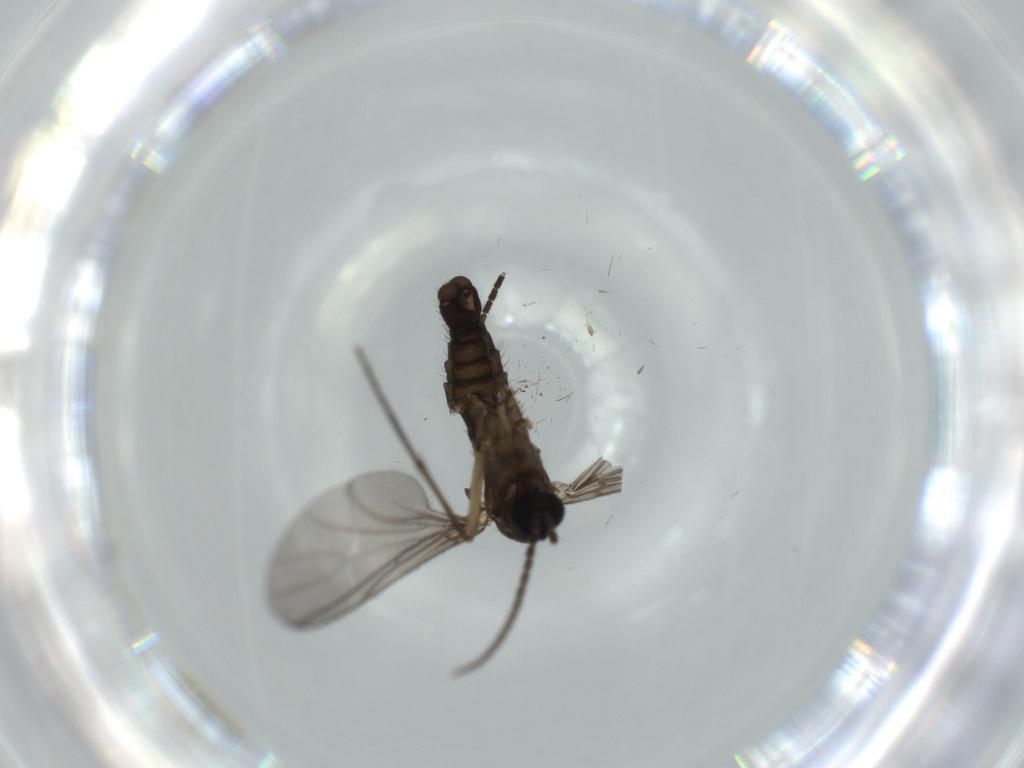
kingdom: Animalia
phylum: Arthropoda
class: Insecta
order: Diptera
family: Sciaridae
